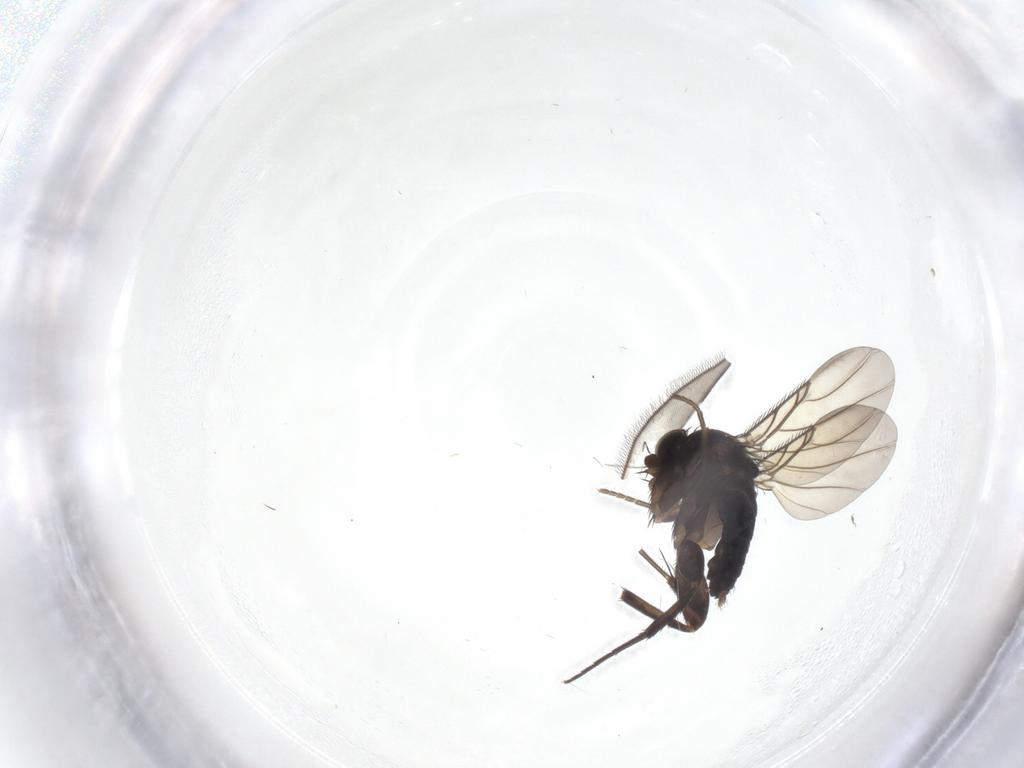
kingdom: Animalia
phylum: Arthropoda
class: Insecta
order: Diptera
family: Phoridae
